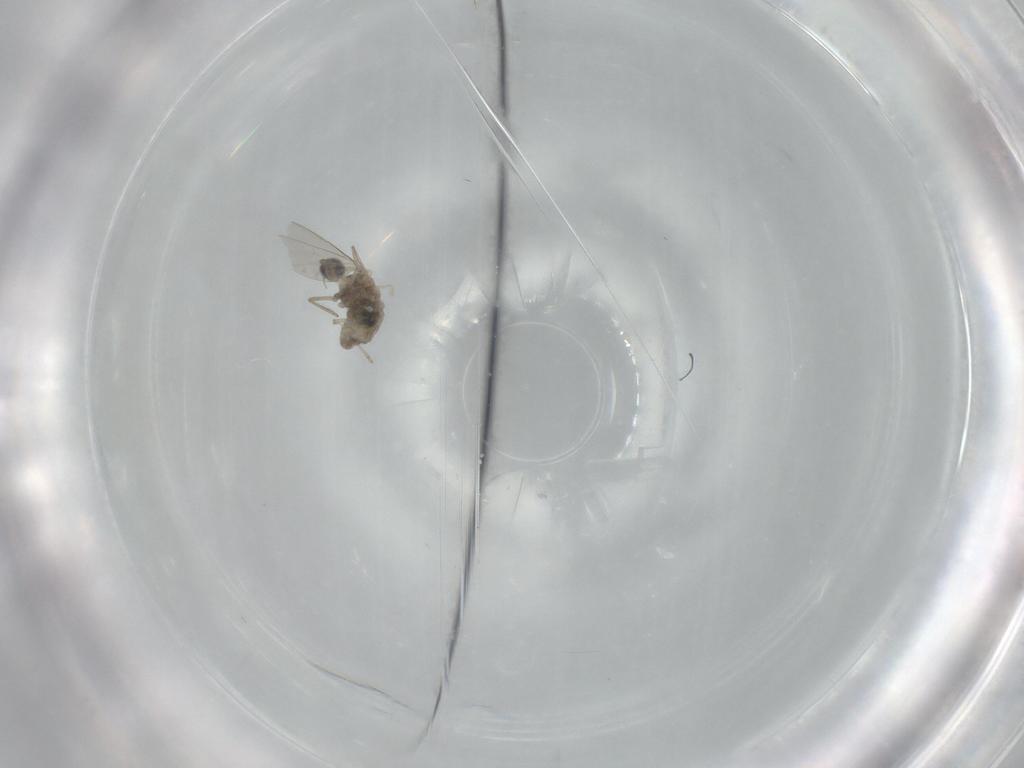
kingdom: Animalia
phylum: Arthropoda
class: Insecta
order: Diptera
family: Cecidomyiidae
